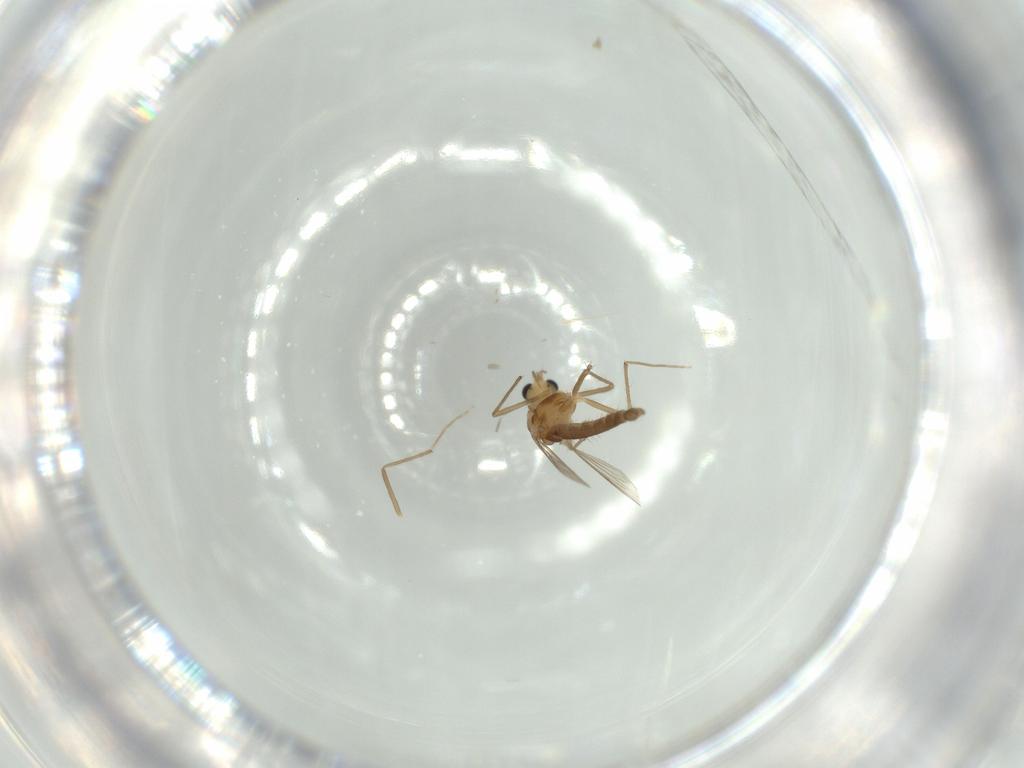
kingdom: Animalia
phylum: Arthropoda
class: Insecta
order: Diptera
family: Chironomidae
